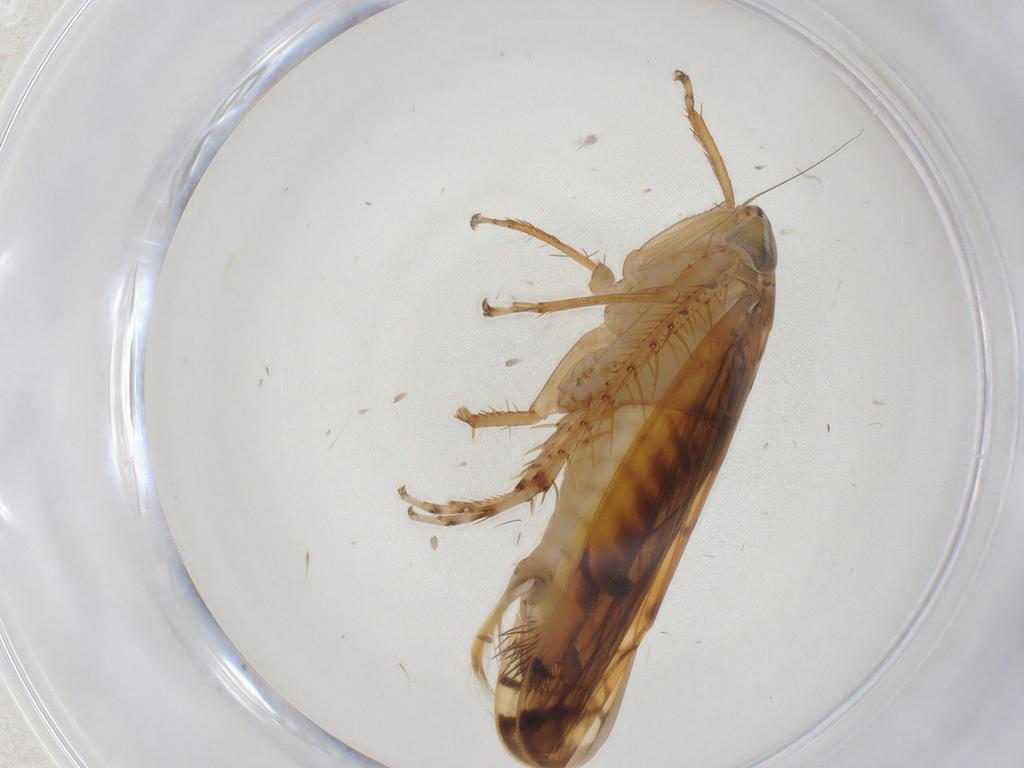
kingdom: Animalia
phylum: Arthropoda
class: Insecta
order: Hemiptera
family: Cicadellidae
